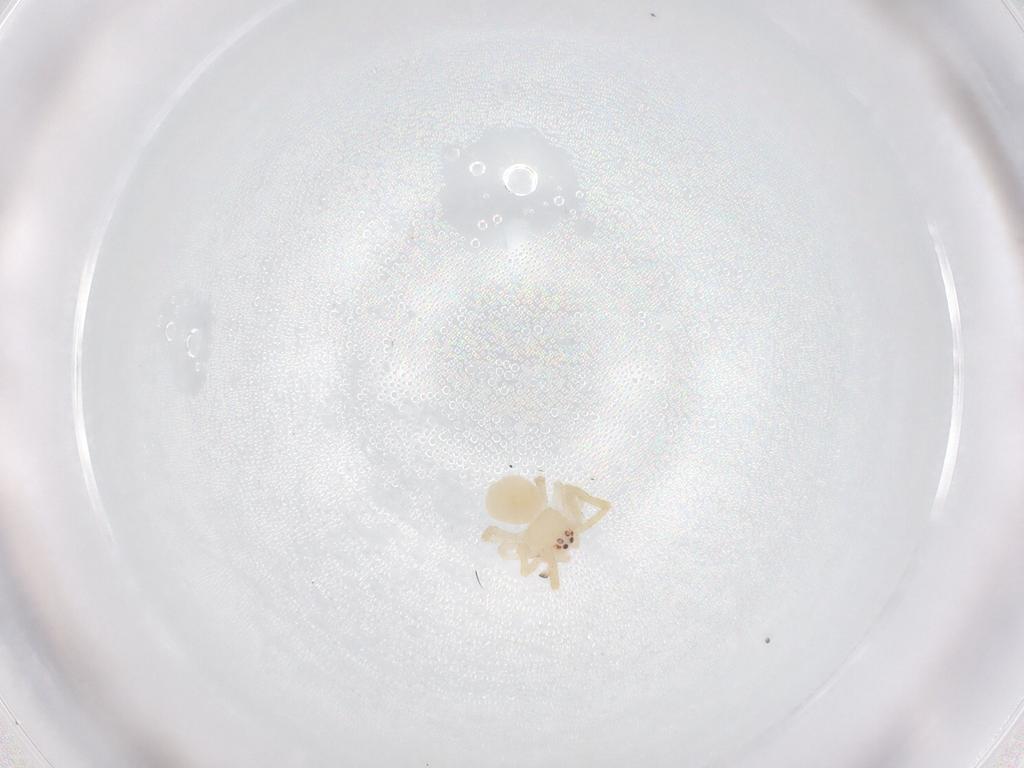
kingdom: Animalia
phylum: Arthropoda
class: Arachnida
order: Araneae
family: Theridiidae
